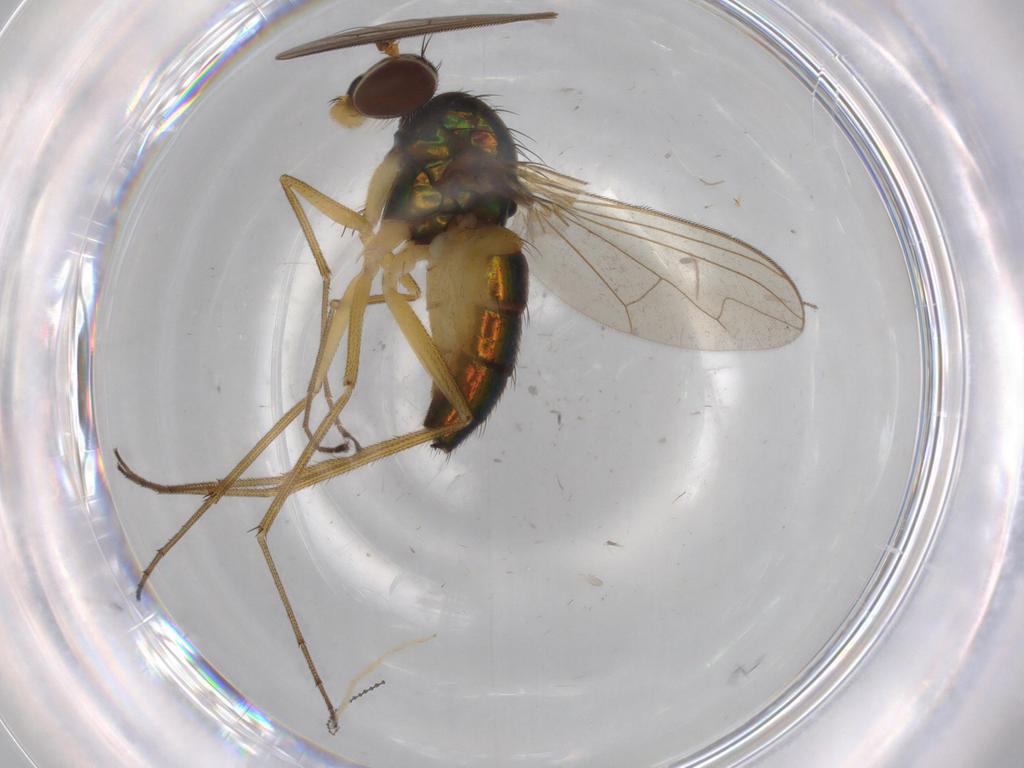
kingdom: Animalia
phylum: Arthropoda
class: Insecta
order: Diptera
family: Dolichopodidae
